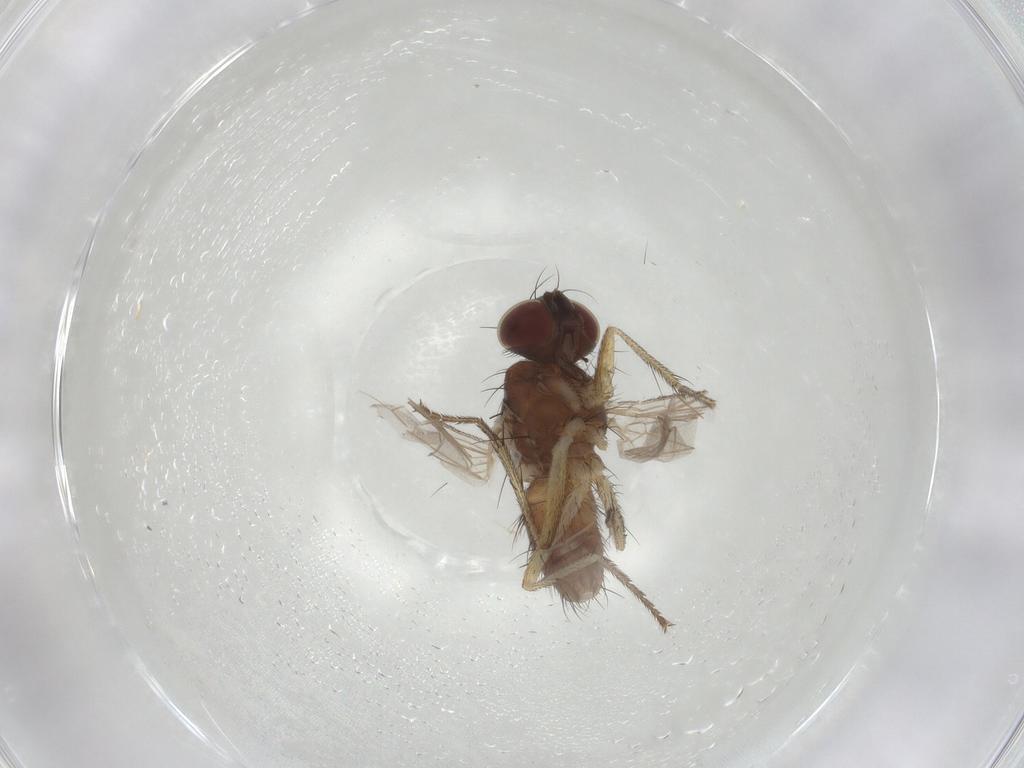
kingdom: Animalia
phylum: Arthropoda
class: Insecta
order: Diptera
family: Muscidae
